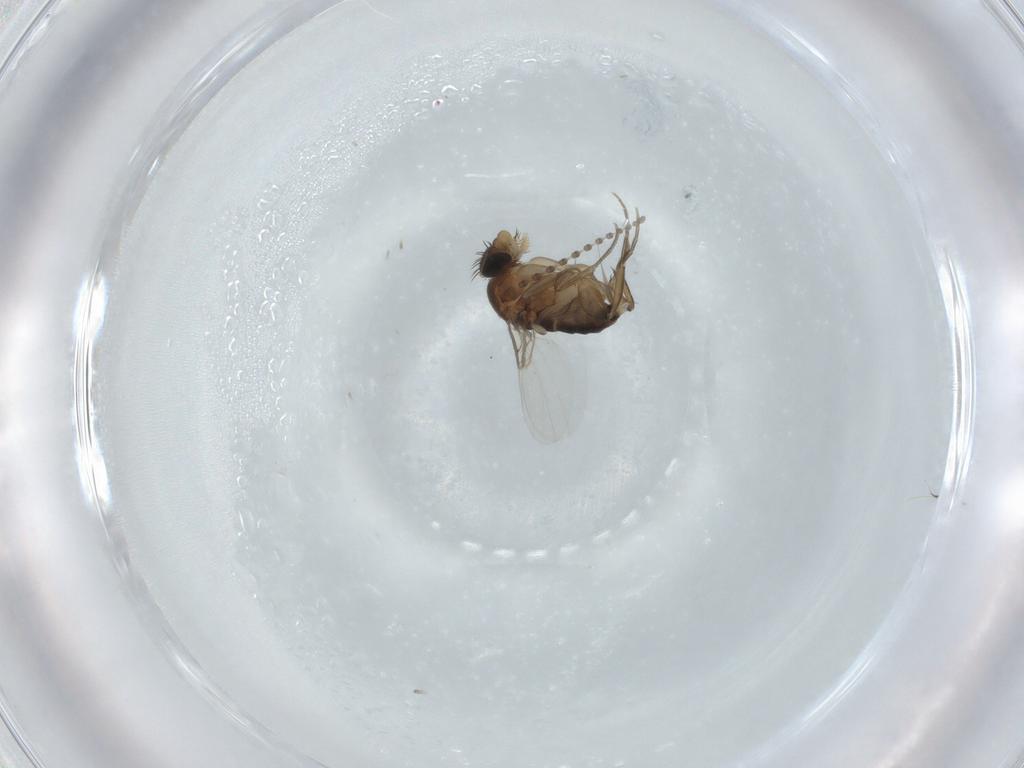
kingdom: Animalia
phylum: Arthropoda
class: Insecta
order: Diptera
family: Phoridae
